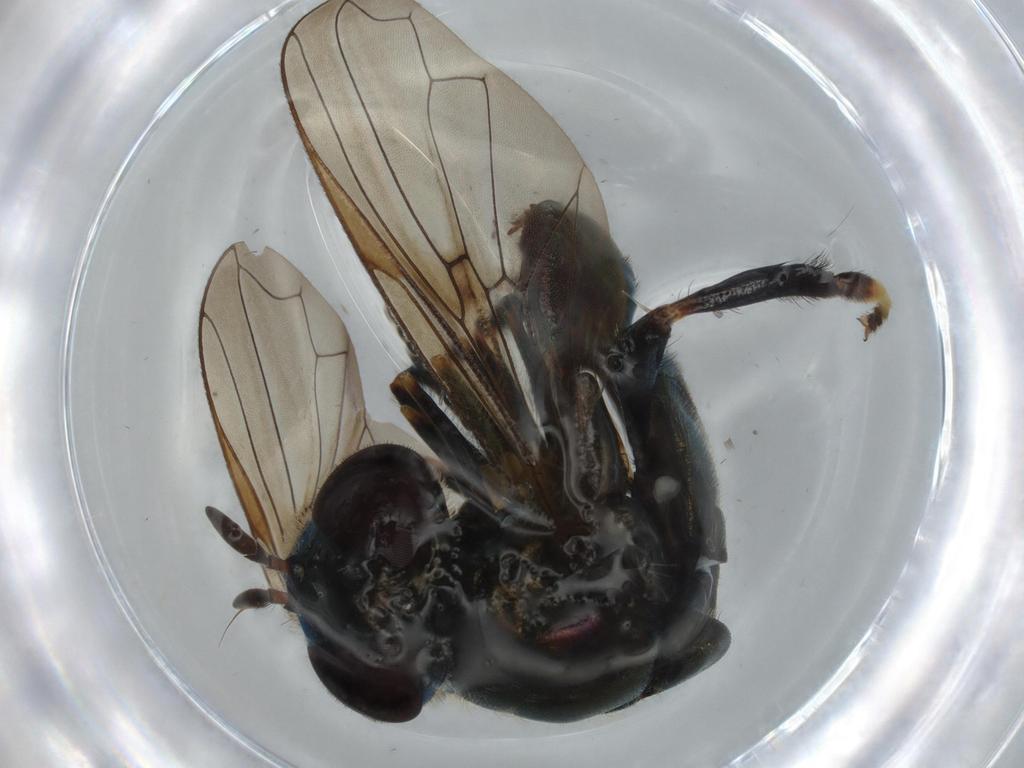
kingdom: Animalia
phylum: Arthropoda
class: Insecta
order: Diptera
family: Syrphidae
